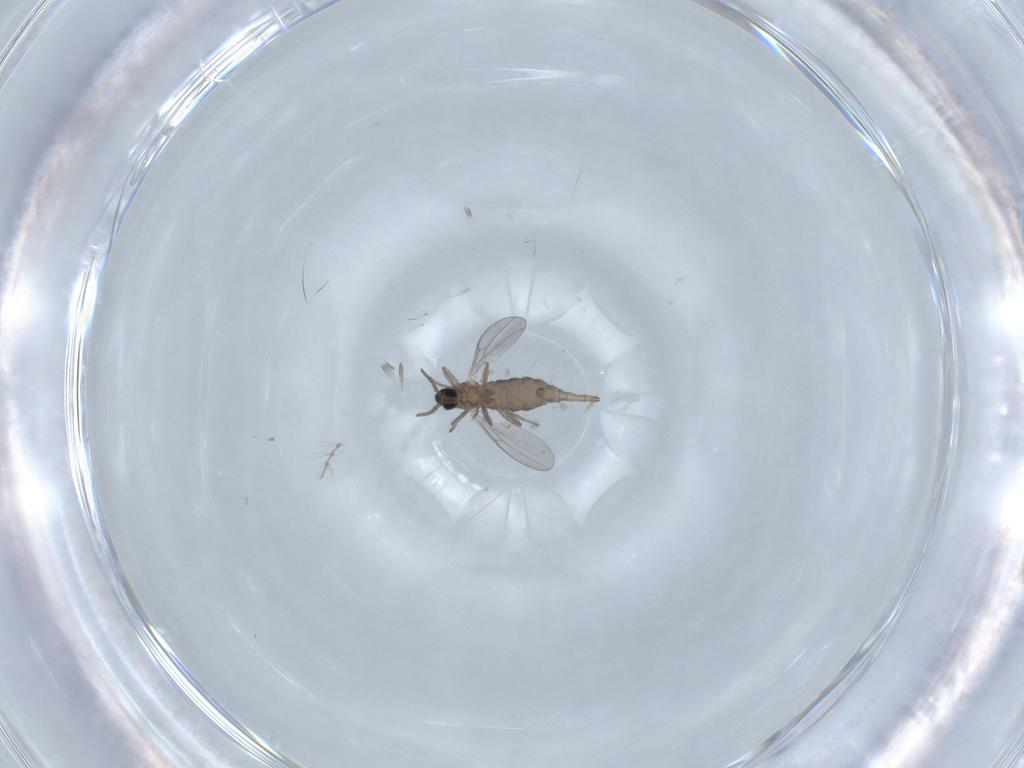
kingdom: Animalia
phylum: Arthropoda
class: Insecta
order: Diptera
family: Cecidomyiidae
